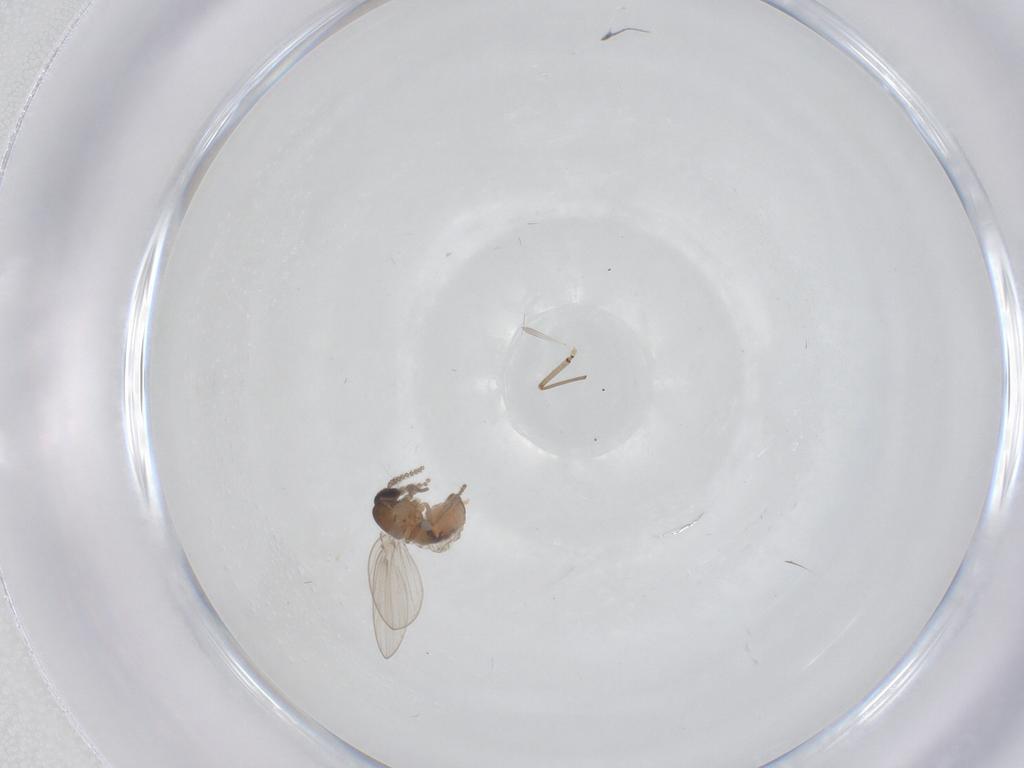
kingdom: Animalia
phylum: Arthropoda
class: Insecta
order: Diptera
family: Psychodidae
